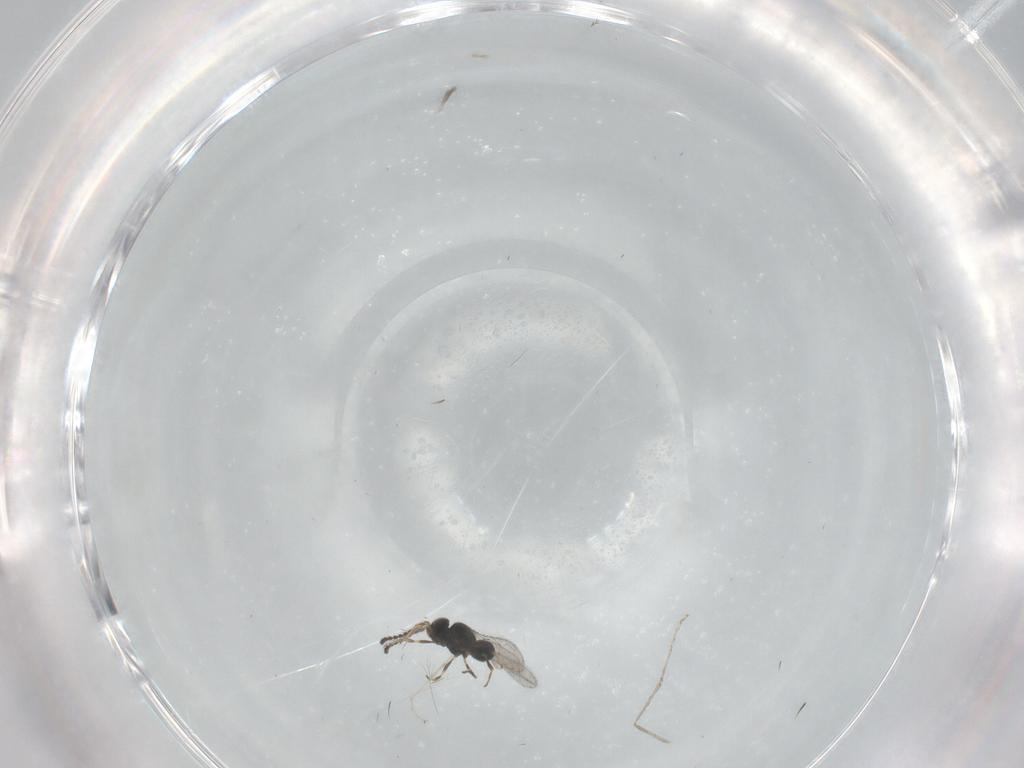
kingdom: Animalia
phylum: Arthropoda
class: Insecta
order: Hymenoptera
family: Scelionidae
